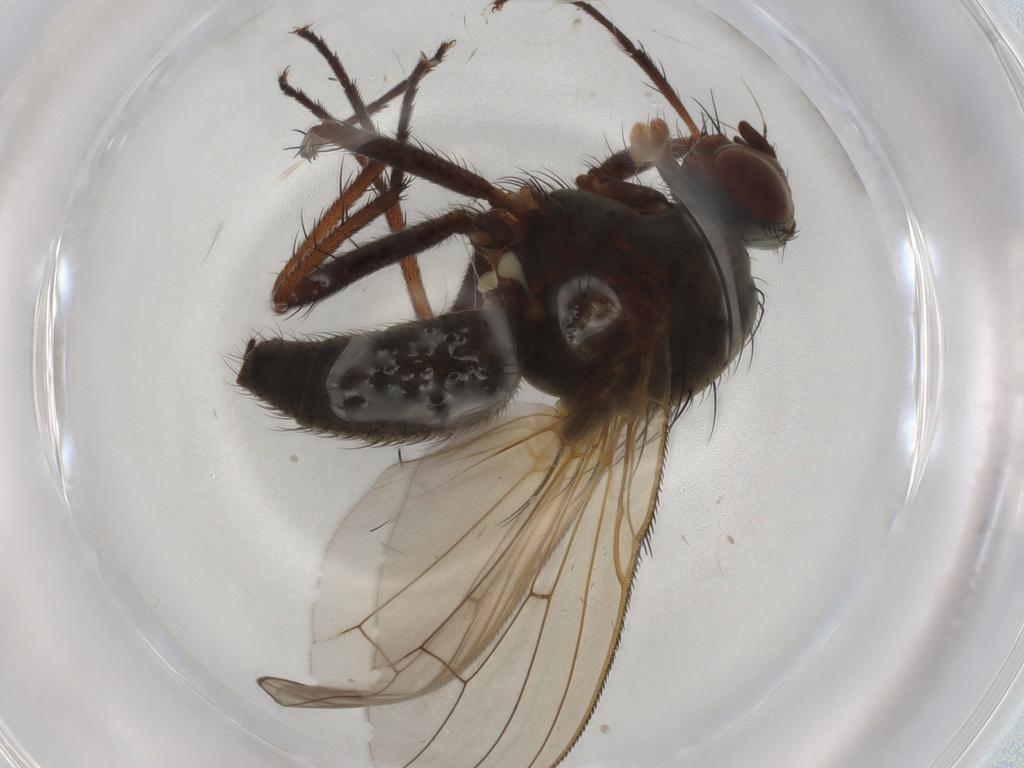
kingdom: Animalia
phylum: Arthropoda
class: Insecta
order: Diptera
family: Anthomyiidae
